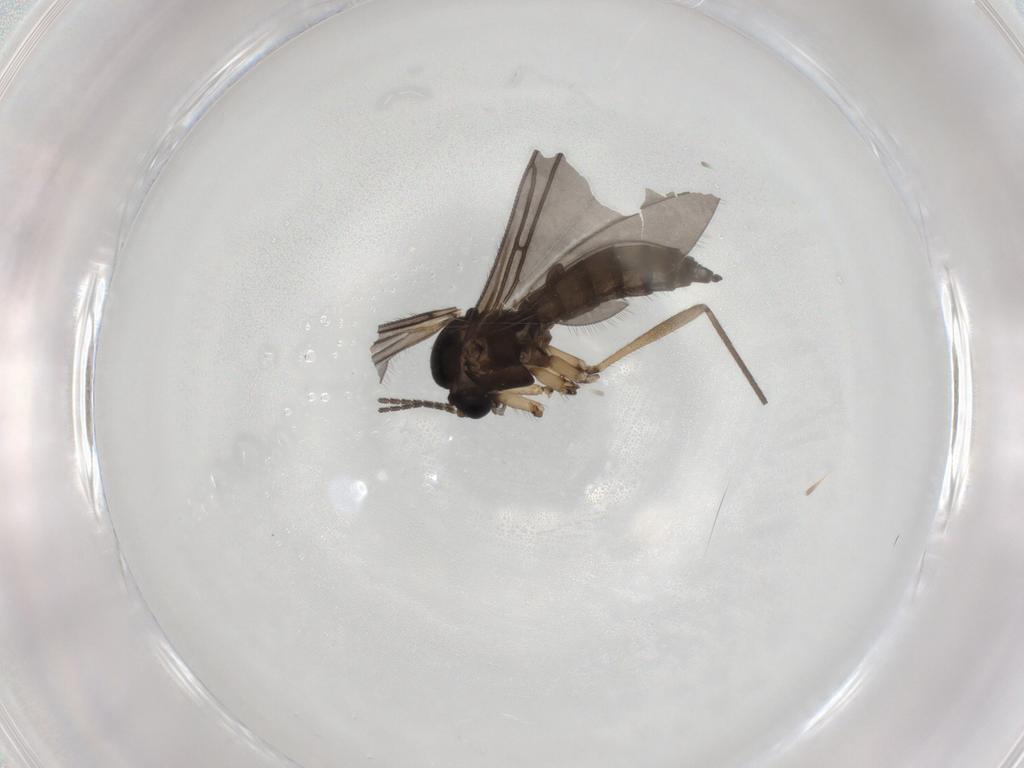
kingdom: Animalia
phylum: Arthropoda
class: Insecta
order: Diptera
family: Sciaridae
